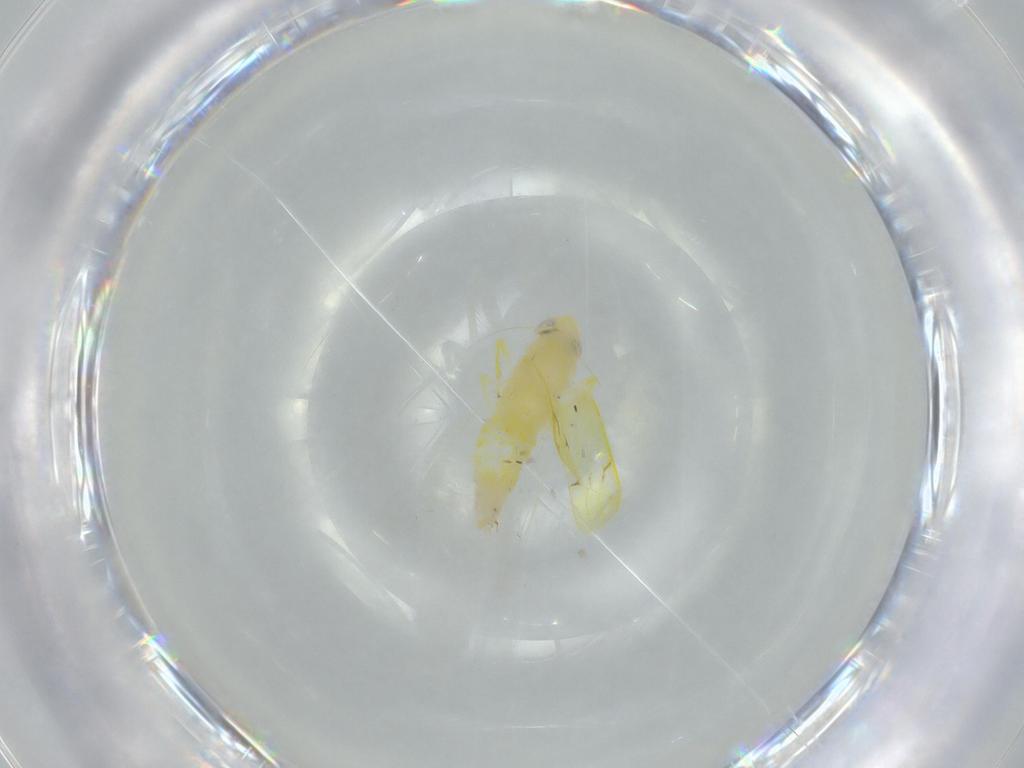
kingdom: Animalia
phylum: Arthropoda
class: Insecta
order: Hemiptera
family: Cicadellidae
